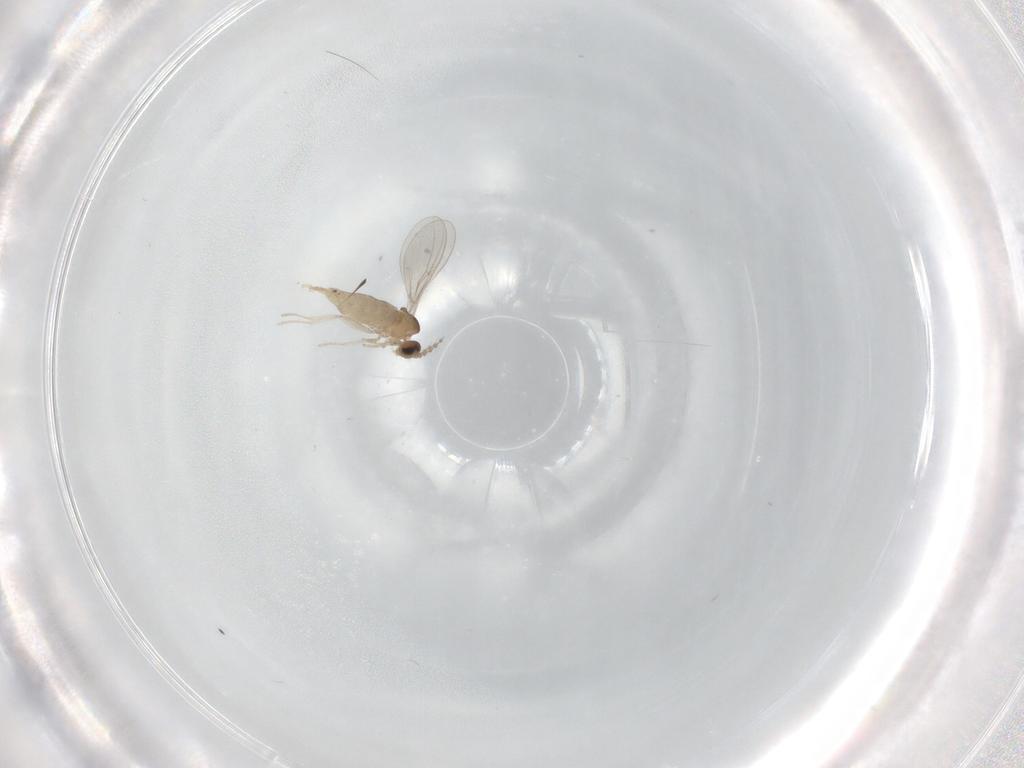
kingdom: Animalia
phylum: Arthropoda
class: Insecta
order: Diptera
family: Cecidomyiidae
